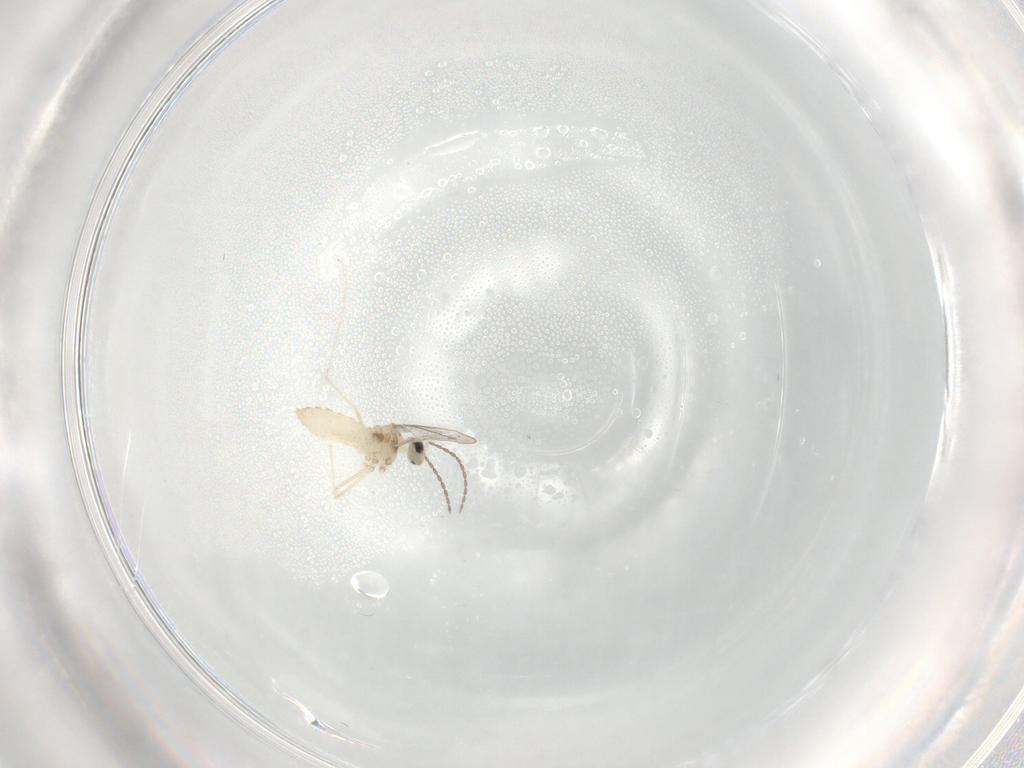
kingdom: Animalia
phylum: Arthropoda
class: Insecta
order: Diptera
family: Cecidomyiidae
